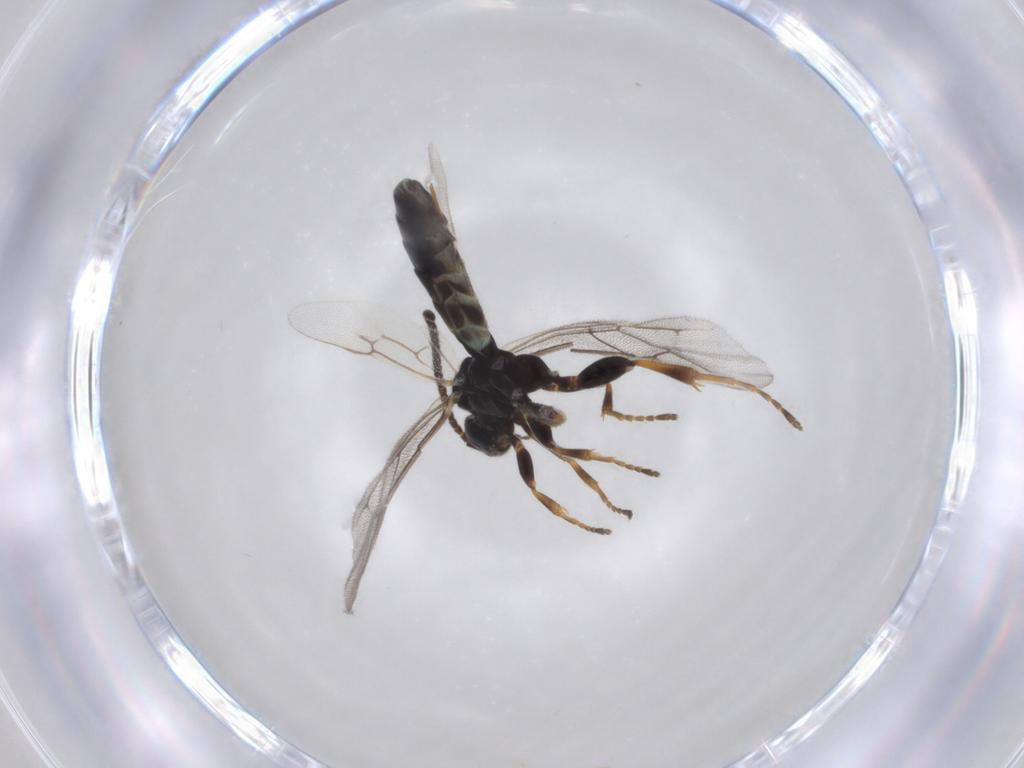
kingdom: Animalia
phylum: Arthropoda
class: Insecta
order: Hymenoptera
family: Ichneumonidae
